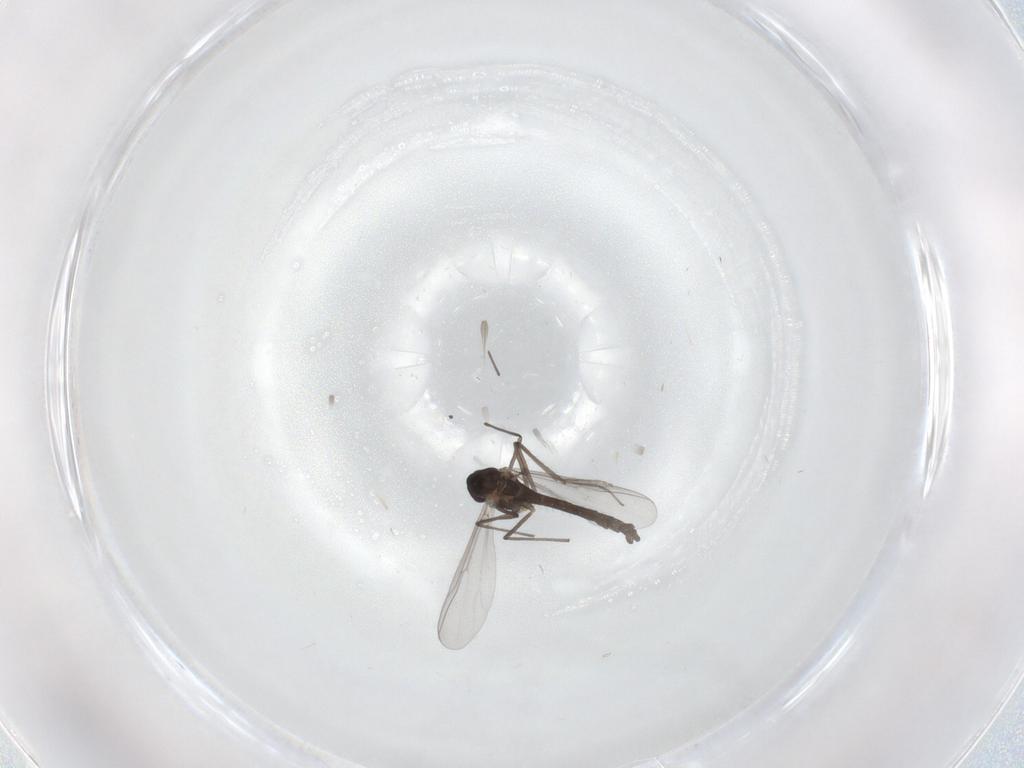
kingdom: Animalia
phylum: Arthropoda
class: Insecta
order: Diptera
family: Chironomidae
